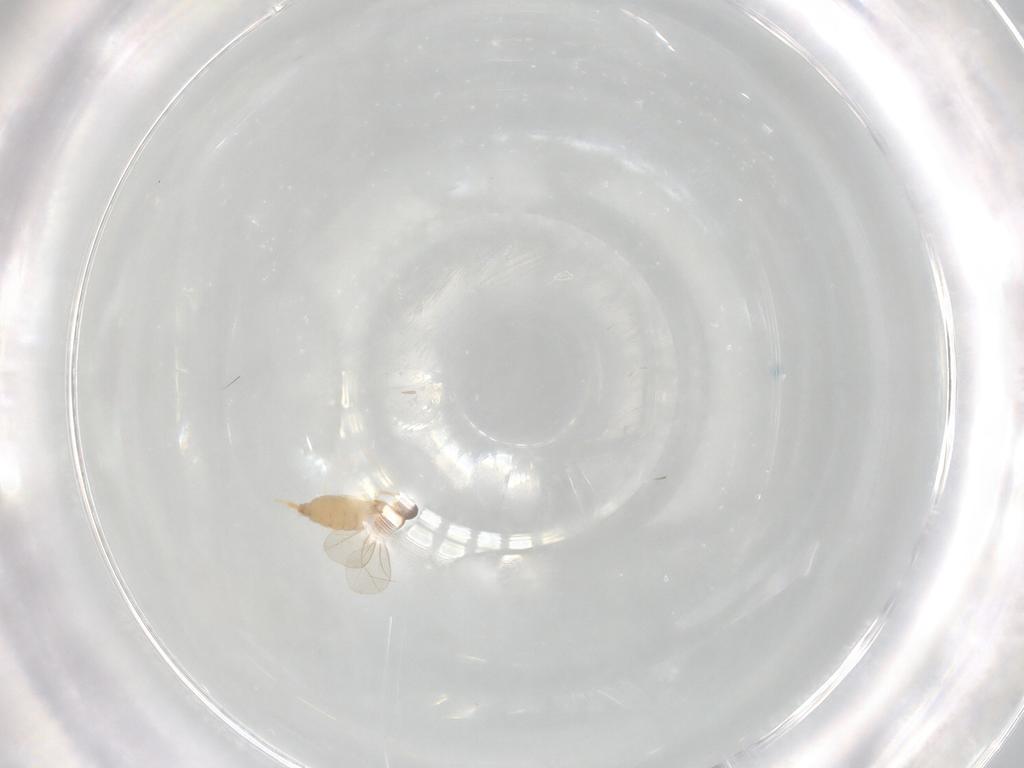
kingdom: Animalia
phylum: Arthropoda
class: Insecta
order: Diptera
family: Cecidomyiidae
